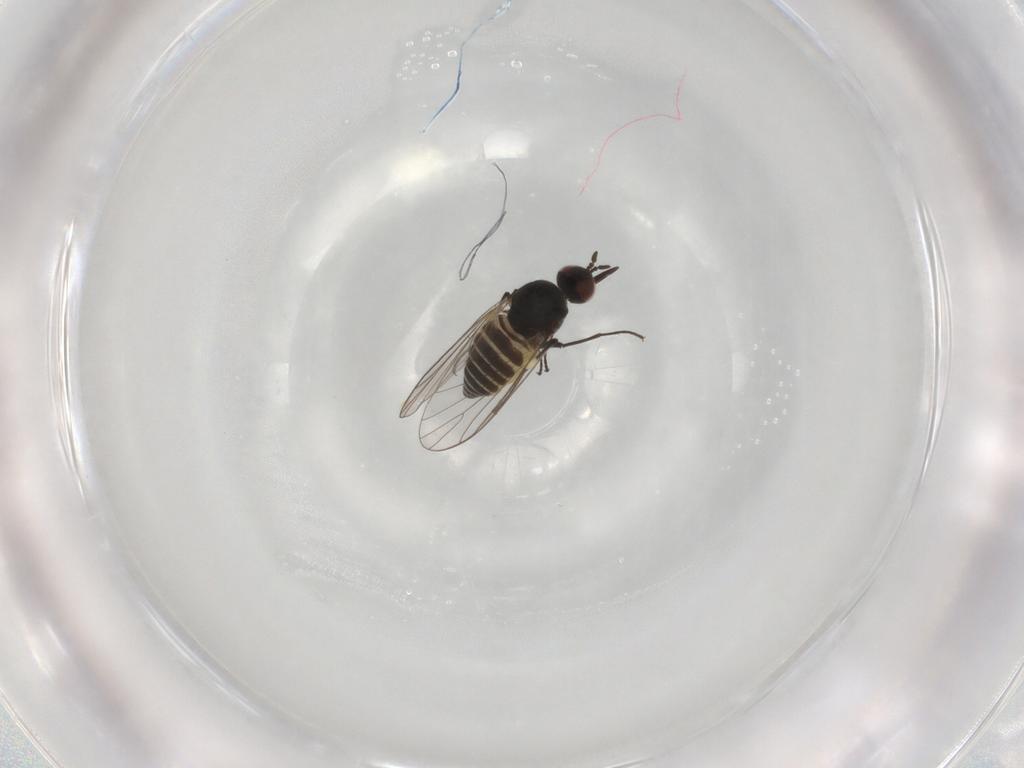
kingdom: Animalia
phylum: Arthropoda
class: Insecta
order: Diptera
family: Bombyliidae
